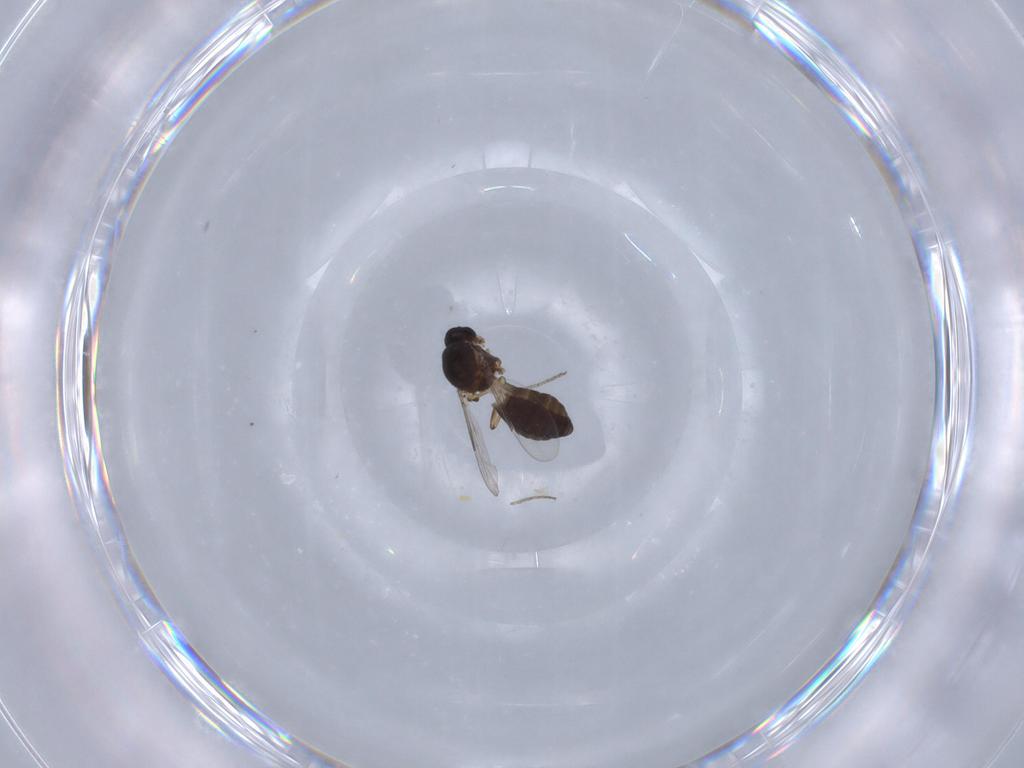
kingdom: Animalia
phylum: Arthropoda
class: Insecta
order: Diptera
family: Ceratopogonidae
